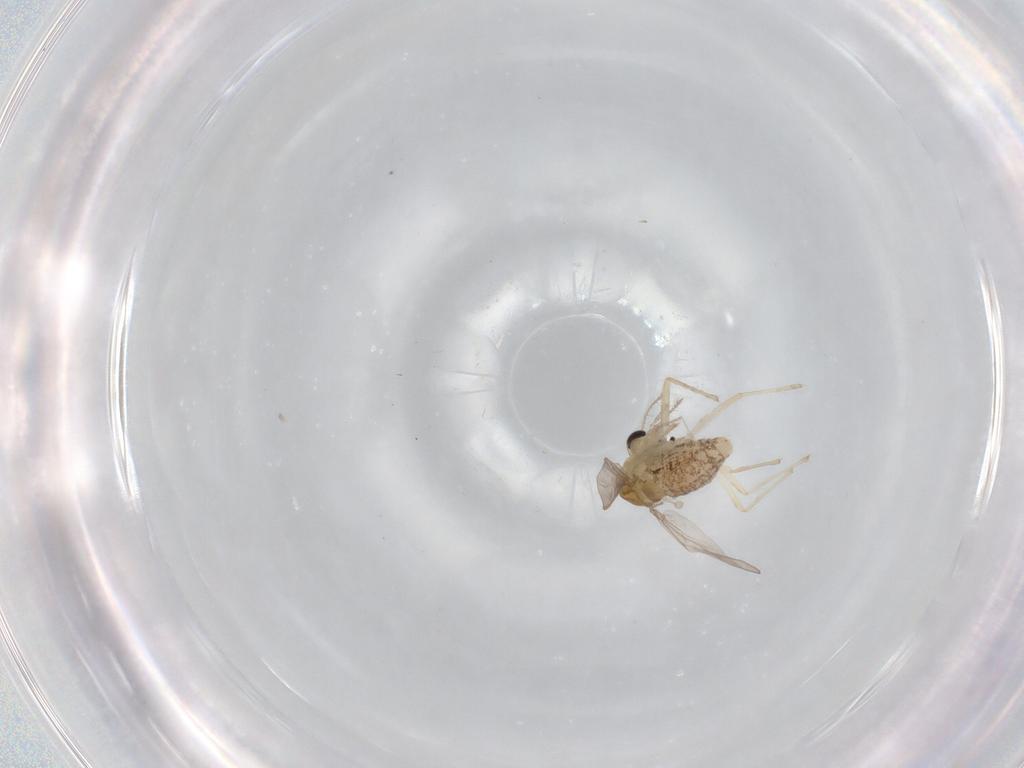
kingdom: Animalia
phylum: Arthropoda
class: Insecta
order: Diptera
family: Chironomidae
